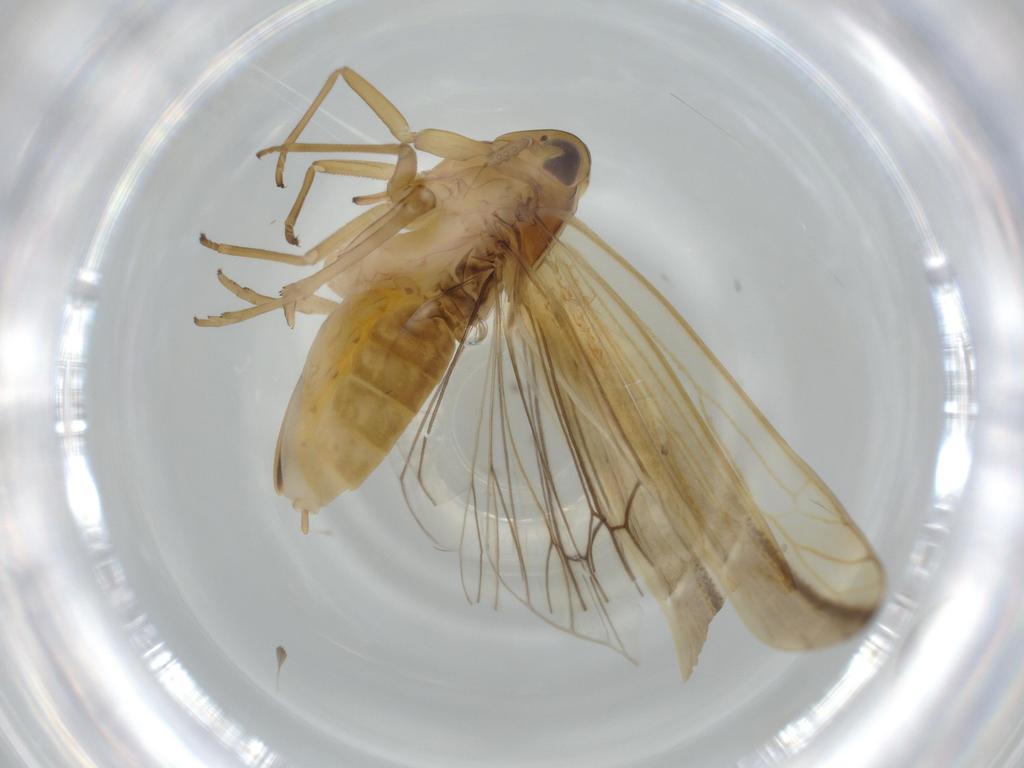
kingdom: Animalia
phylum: Arthropoda
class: Insecta
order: Hemiptera
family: Delphacidae
